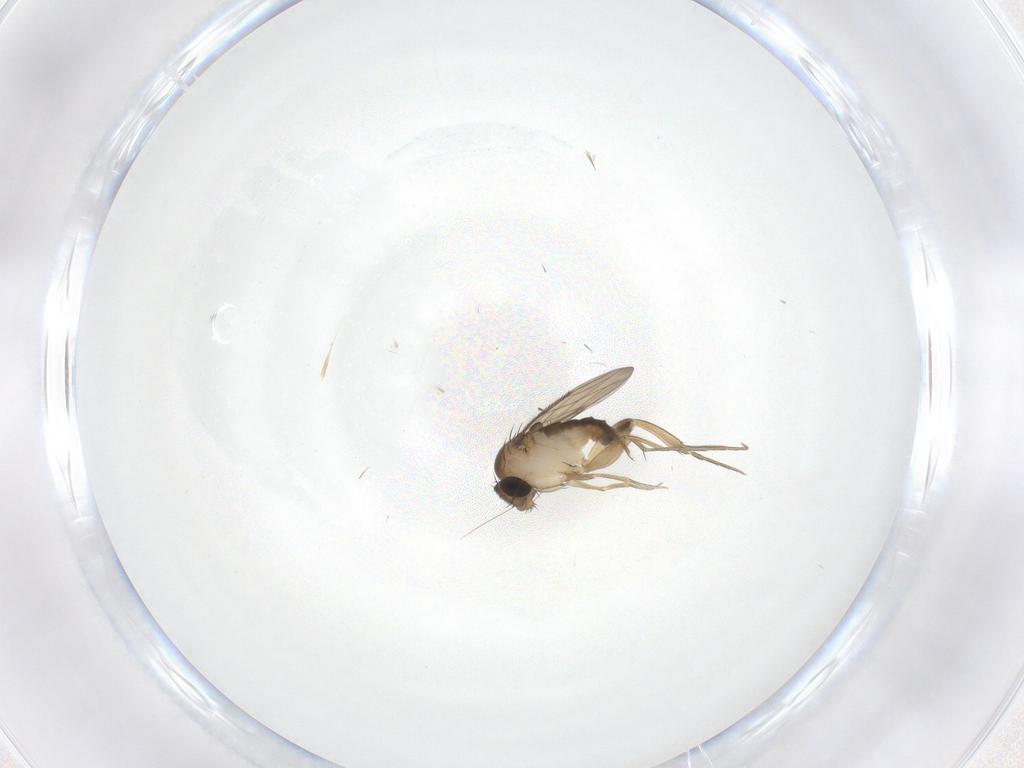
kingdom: Animalia
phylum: Arthropoda
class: Insecta
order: Diptera
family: Phoridae
